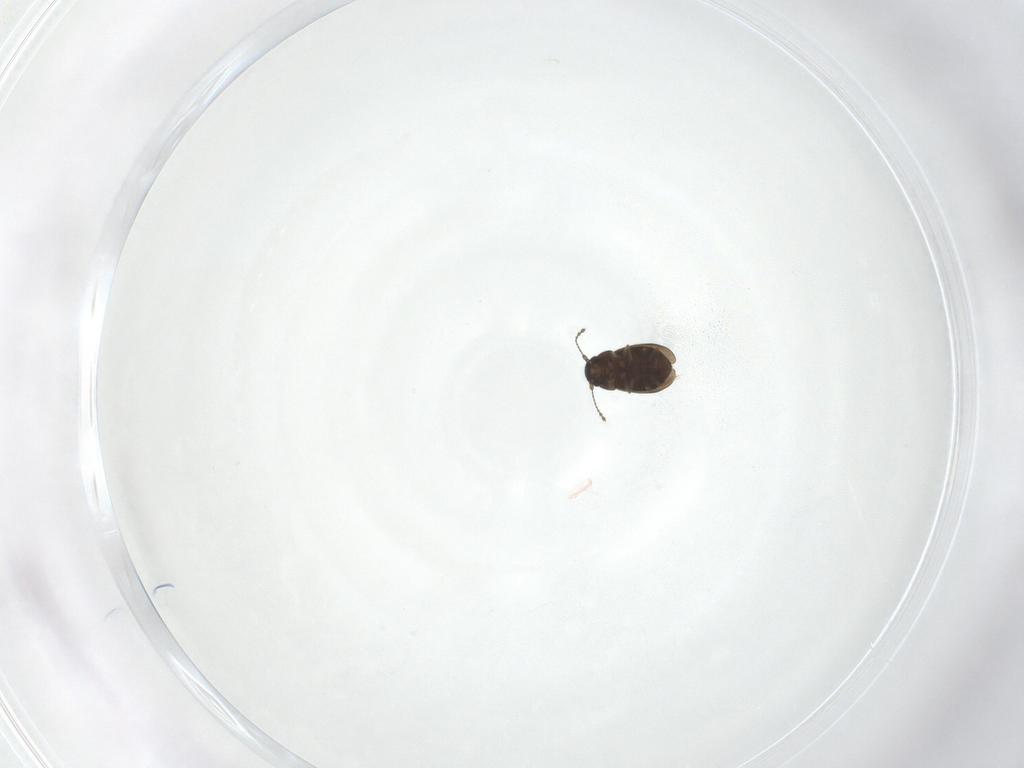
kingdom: Animalia
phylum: Arthropoda
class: Insecta
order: Coleoptera
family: Ptiliidae
